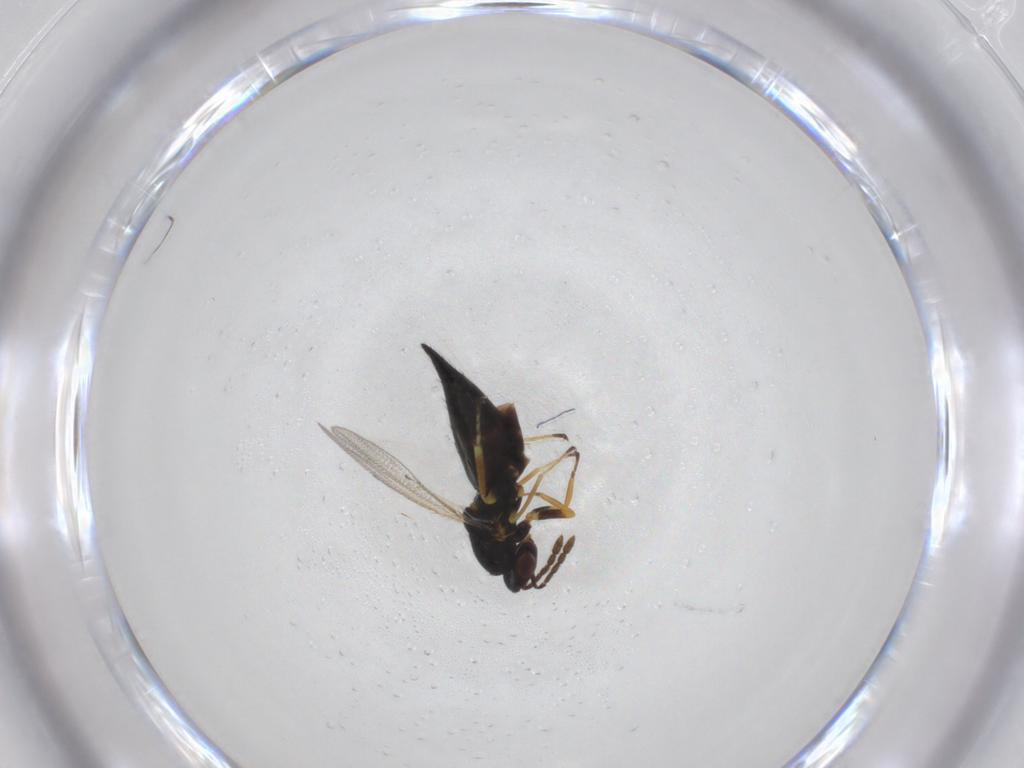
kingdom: Animalia
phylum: Arthropoda
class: Insecta
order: Hymenoptera
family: Eulophidae
